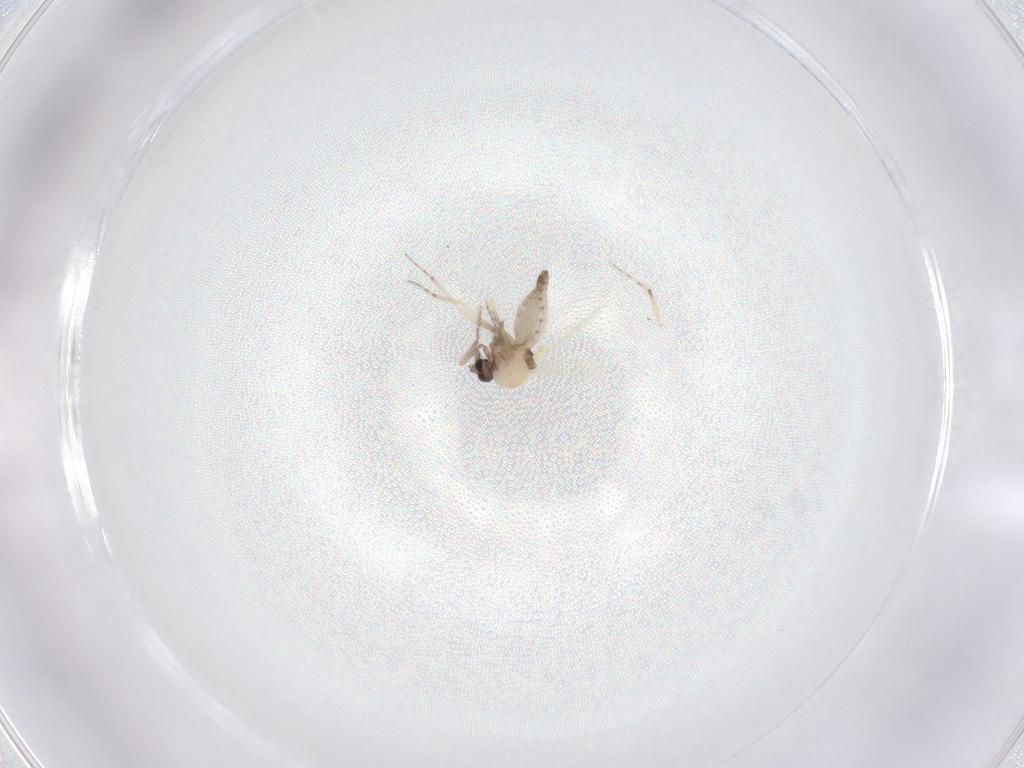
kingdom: Animalia
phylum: Arthropoda
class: Insecta
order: Diptera
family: Ceratopogonidae
